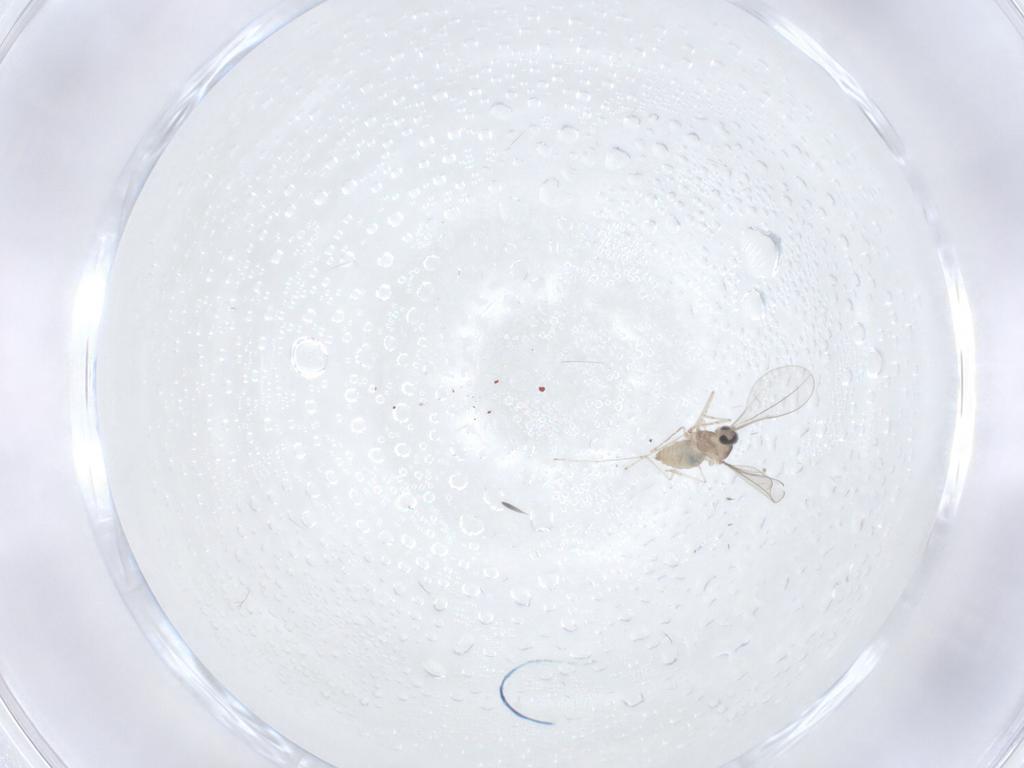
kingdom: Animalia
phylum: Arthropoda
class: Insecta
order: Diptera
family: Cecidomyiidae
